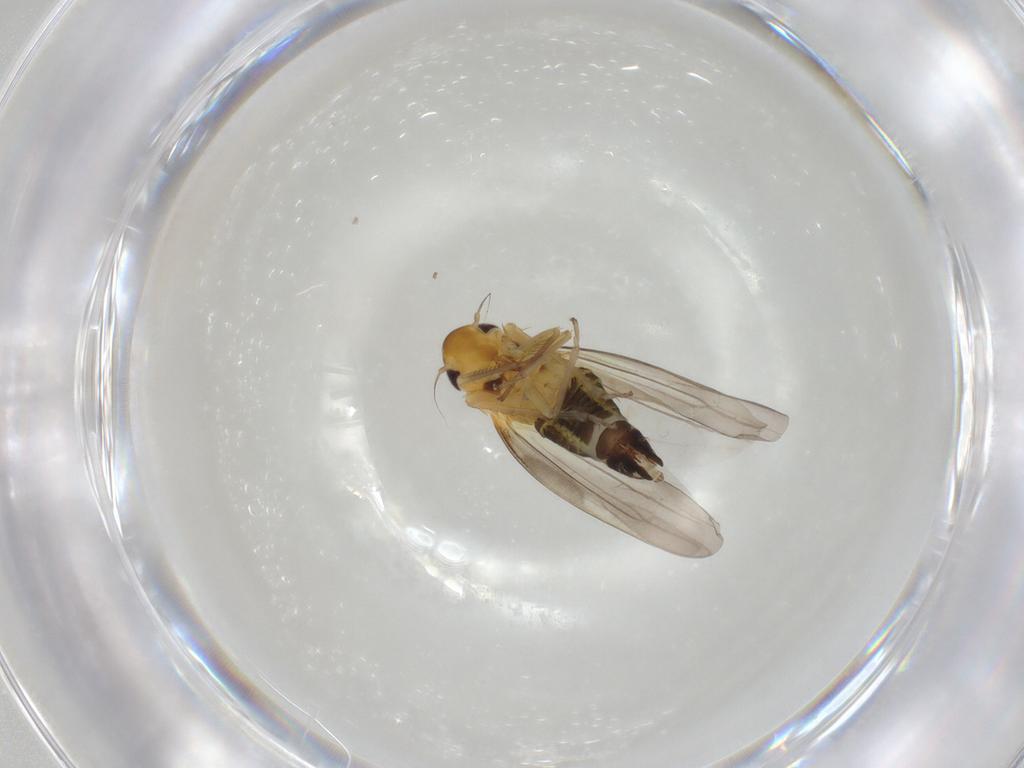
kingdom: Animalia
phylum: Arthropoda
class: Insecta
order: Hemiptera
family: Cicadellidae
